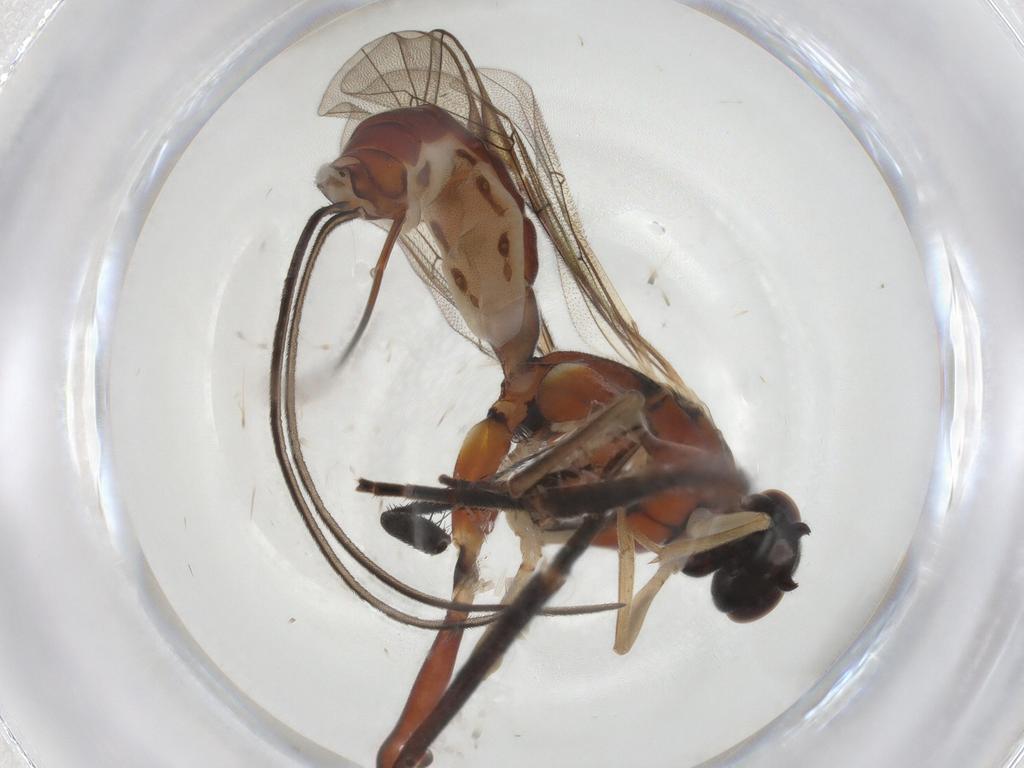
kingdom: Animalia
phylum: Arthropoda
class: Insecta
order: Hymenoptera
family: Ichneumonidae
